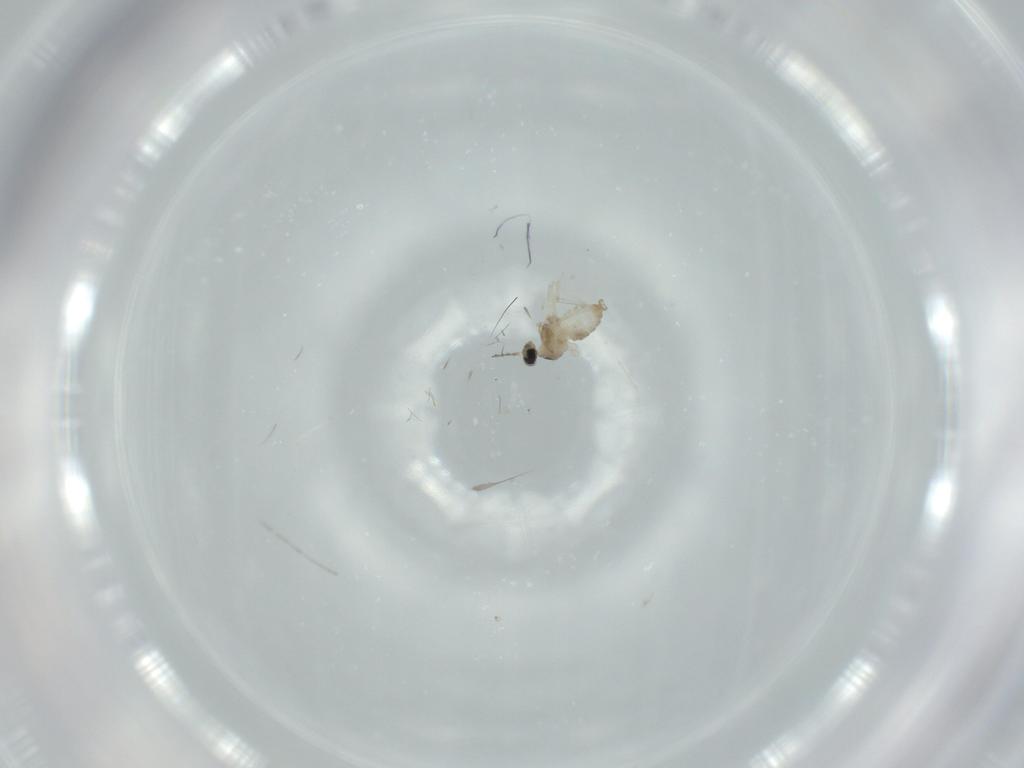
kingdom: Animalia
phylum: Arthropoda
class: Insecta
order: Diptera
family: Cecidomyiidae
